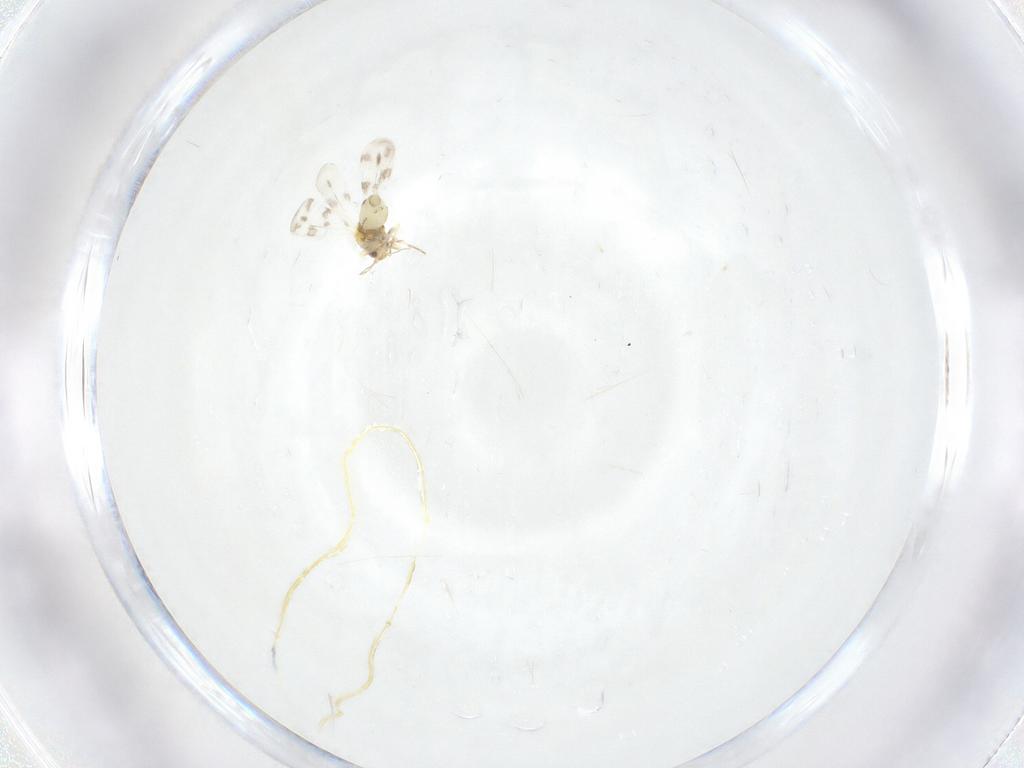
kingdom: Animalia
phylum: Arthropoda
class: Insecta
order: Hemiptera
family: Aleyrodidae
